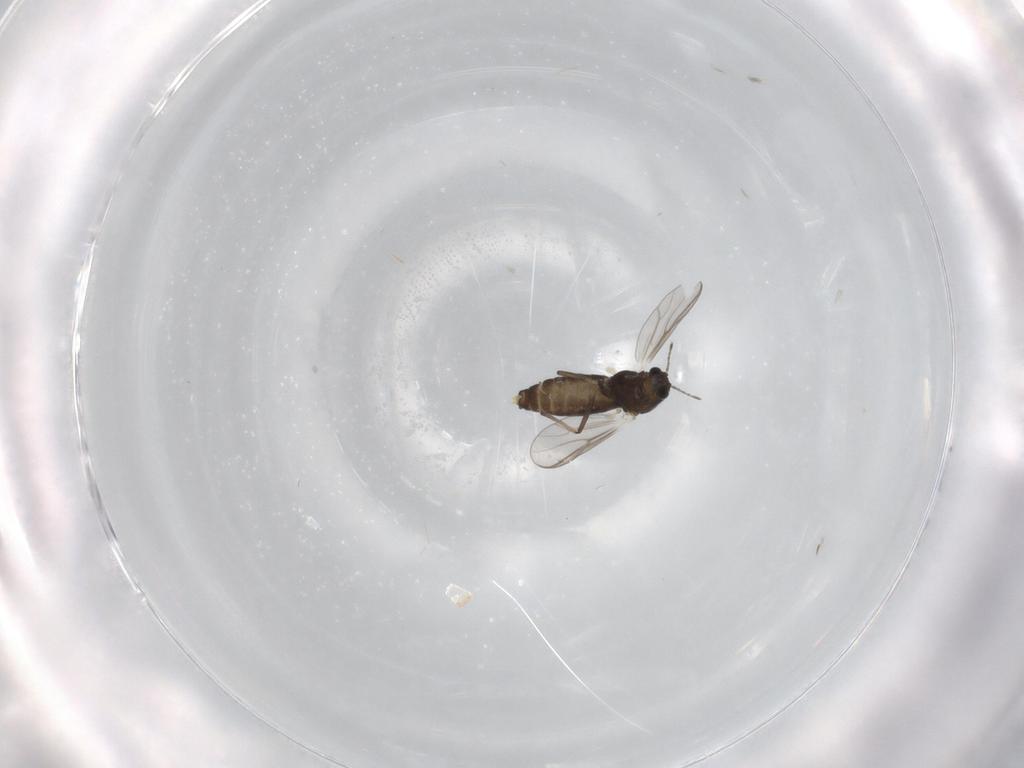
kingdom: Animalia
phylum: Arthropoda
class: Insecta
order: Diptera
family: Chironomidae
